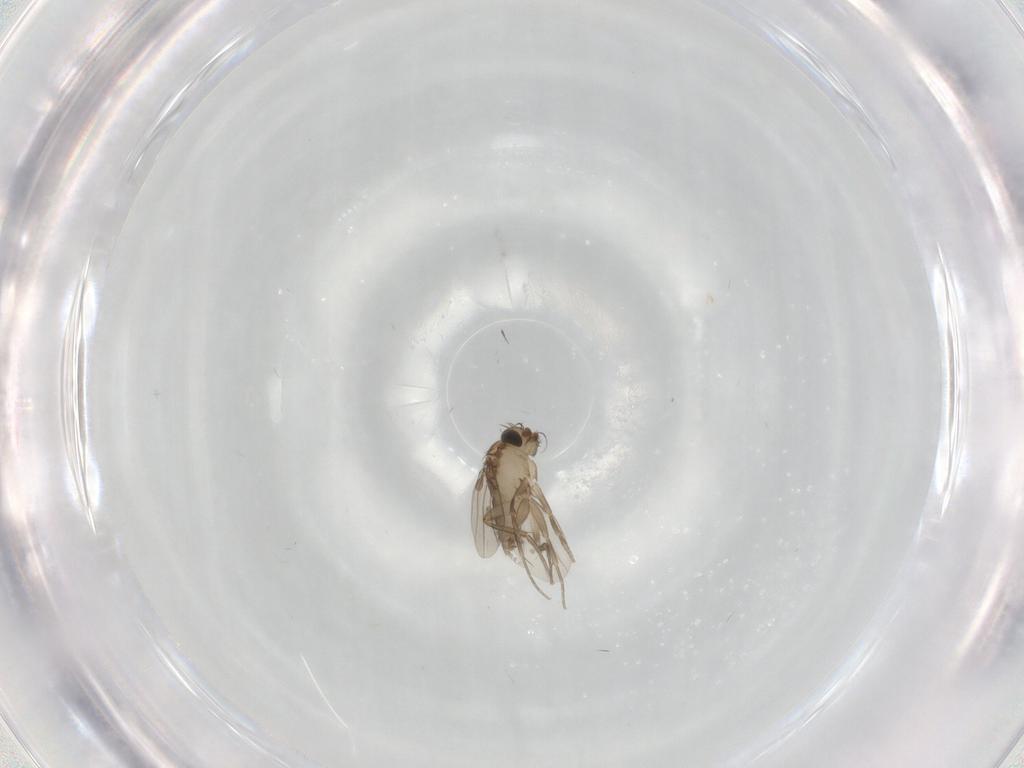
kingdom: Animalia
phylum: Arthropoda
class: Insecta
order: Diptera
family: Phoridae
